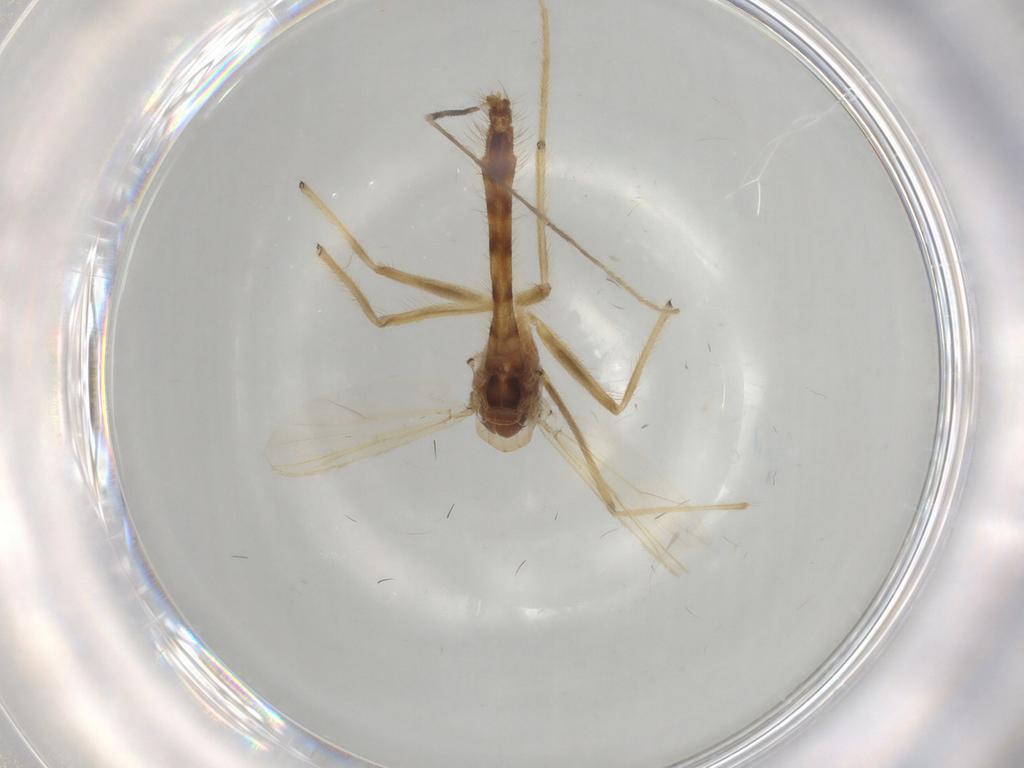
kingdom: Animalia
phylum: Arthropoda
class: Insecta
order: Diptera
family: Chironomidae
